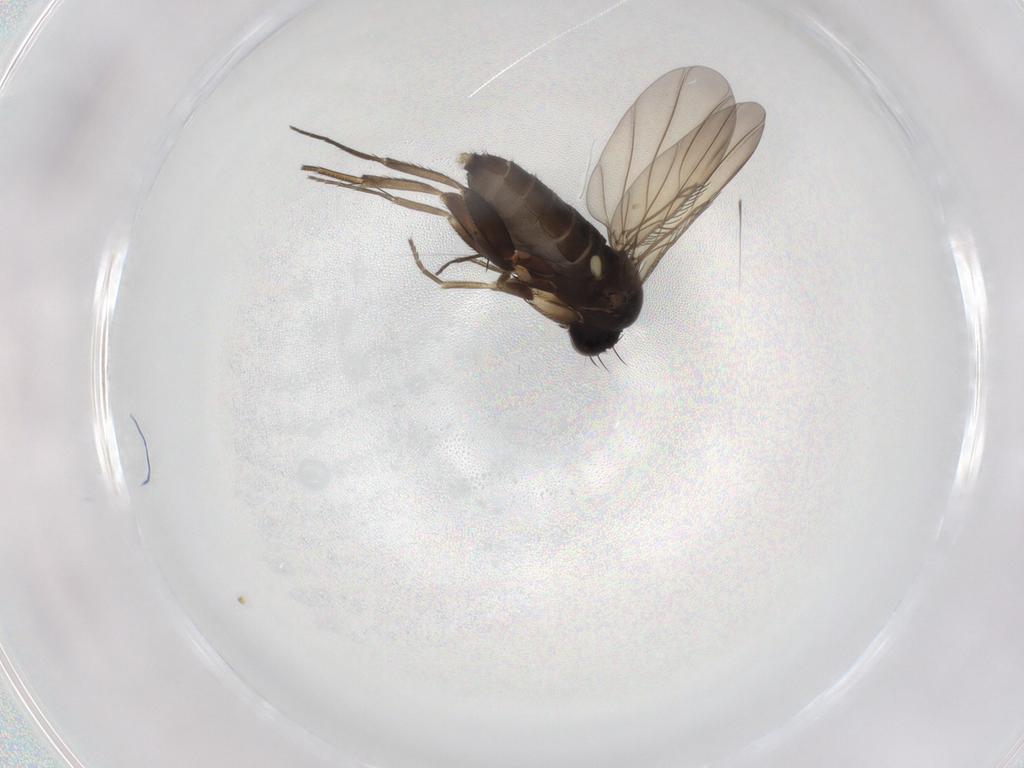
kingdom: Animalia
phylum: Arthropoda
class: Insecta
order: Diptera
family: Phoridae
